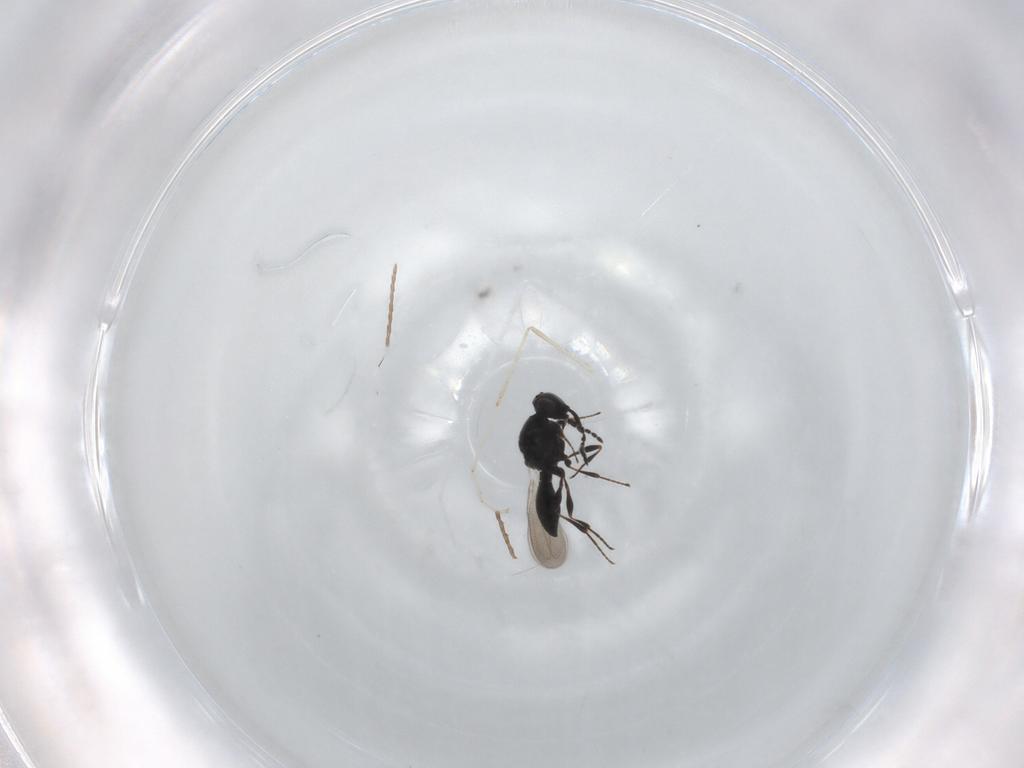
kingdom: Animalia
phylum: Arthropoda
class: Insecta
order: Hymenoptera
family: Platygastridae
